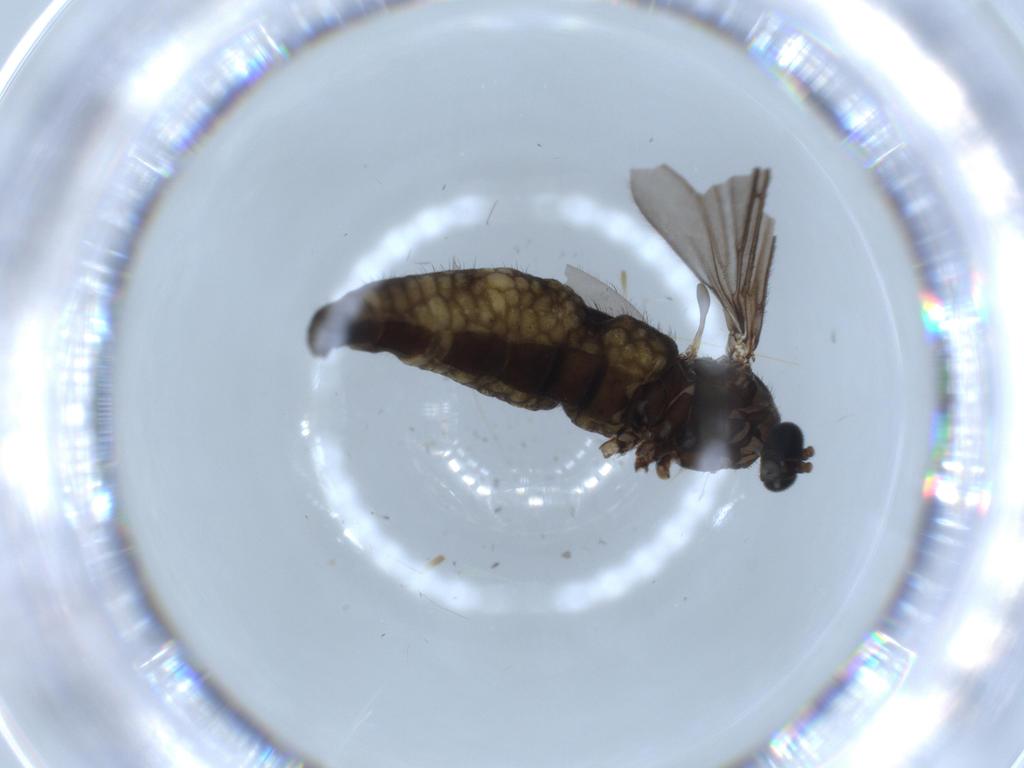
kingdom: Animalia
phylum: Arthropoda
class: Insecta
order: Diptera
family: Sciaridae
